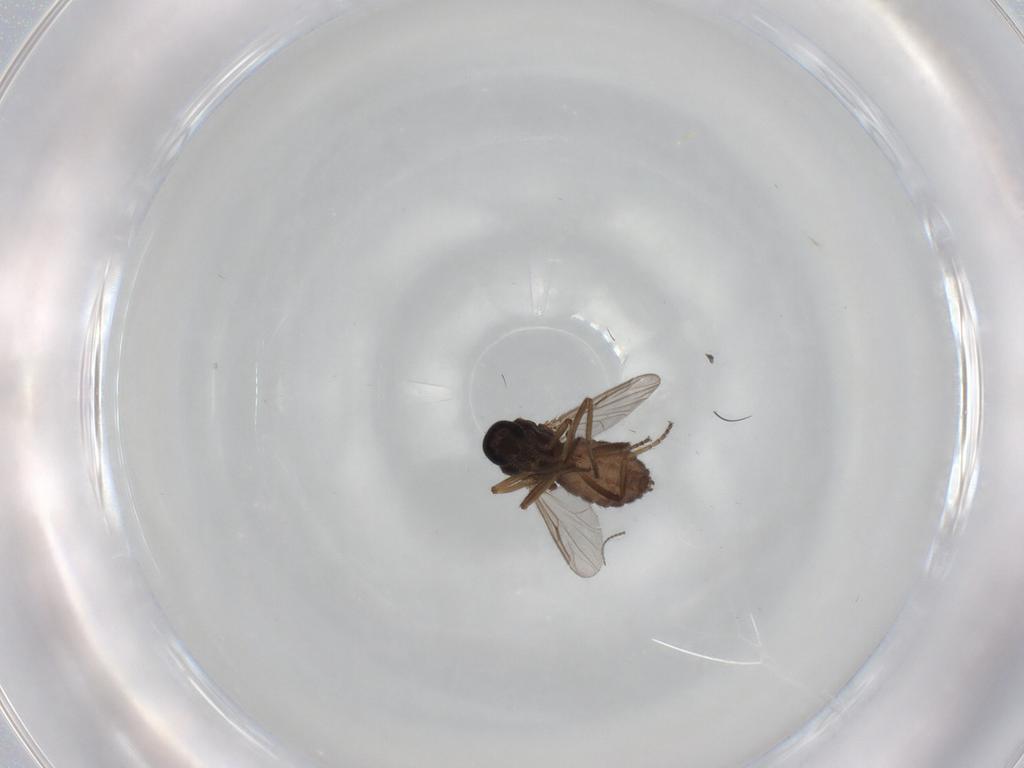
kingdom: Animalia
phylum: Arthropoda
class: Insecta
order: Diptera
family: Ceratopogonidae
